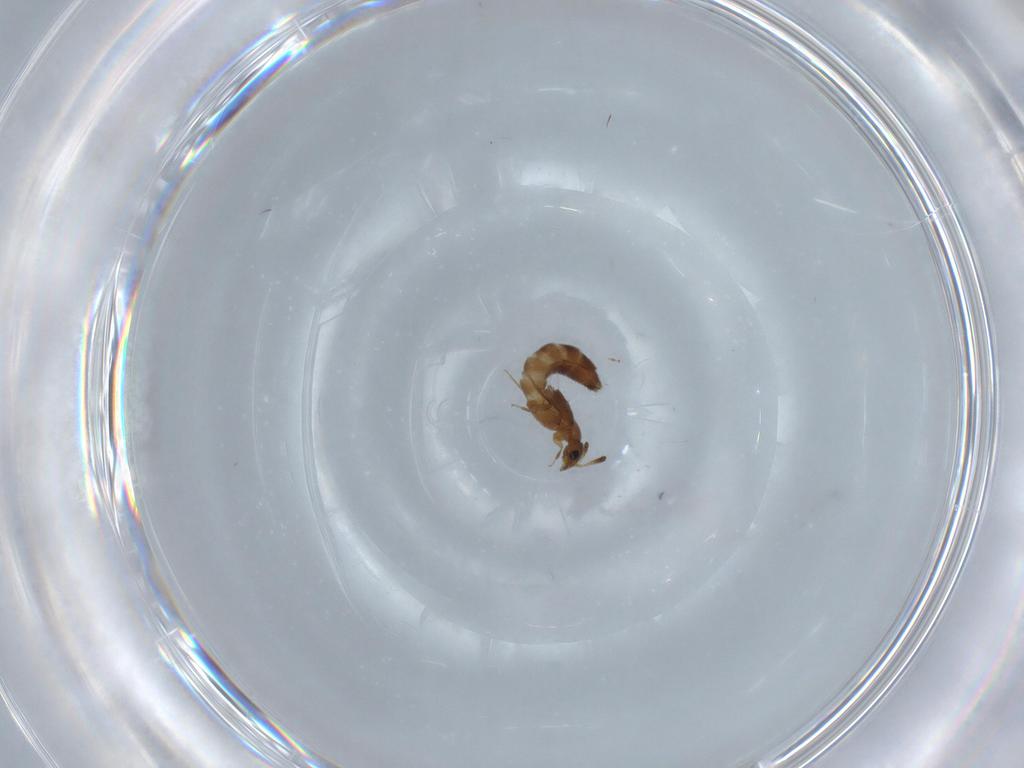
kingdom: Animalia
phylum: Arthropoda
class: Insecta
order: Coleoptera
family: Staphylinidae
